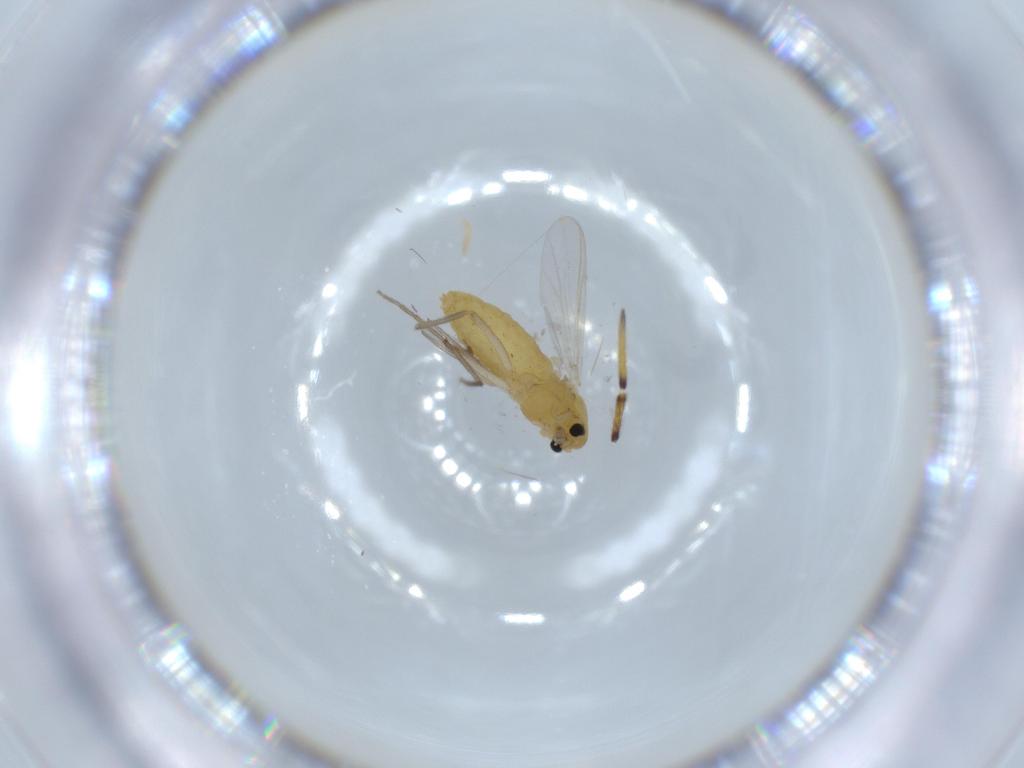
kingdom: Animalia
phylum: Arthropoda
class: Insecta
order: Diptera
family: Chironomidae
